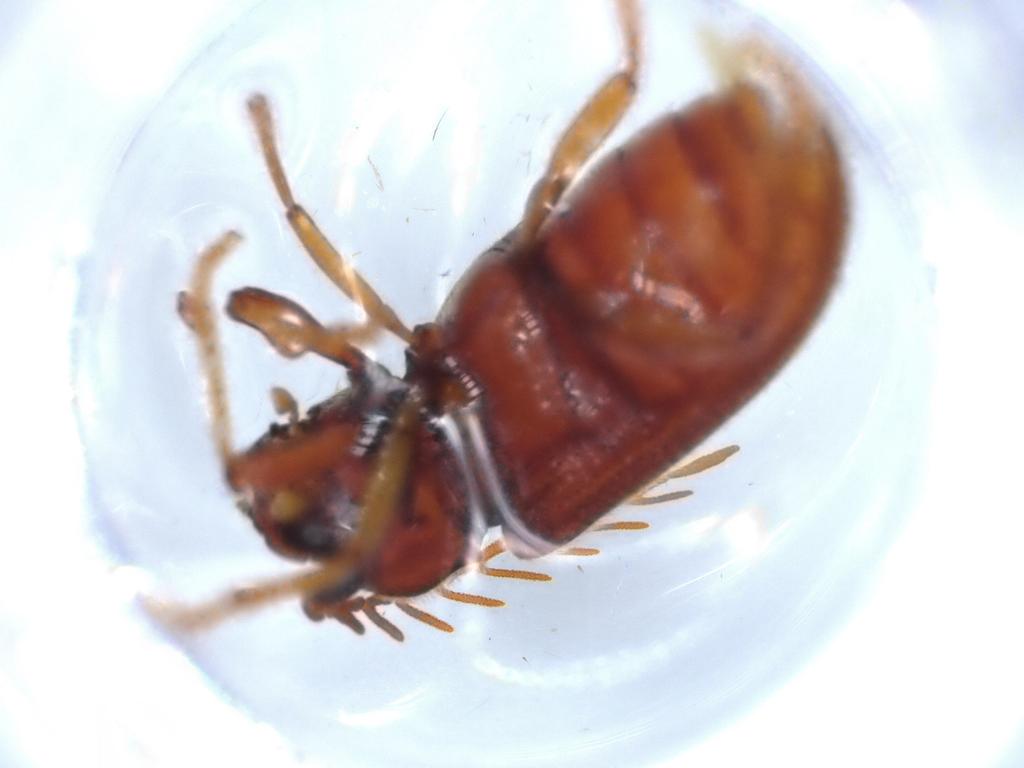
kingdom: Animalia
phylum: Arthropoda
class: Insecta
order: Coleoptera
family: Cerophytidae
